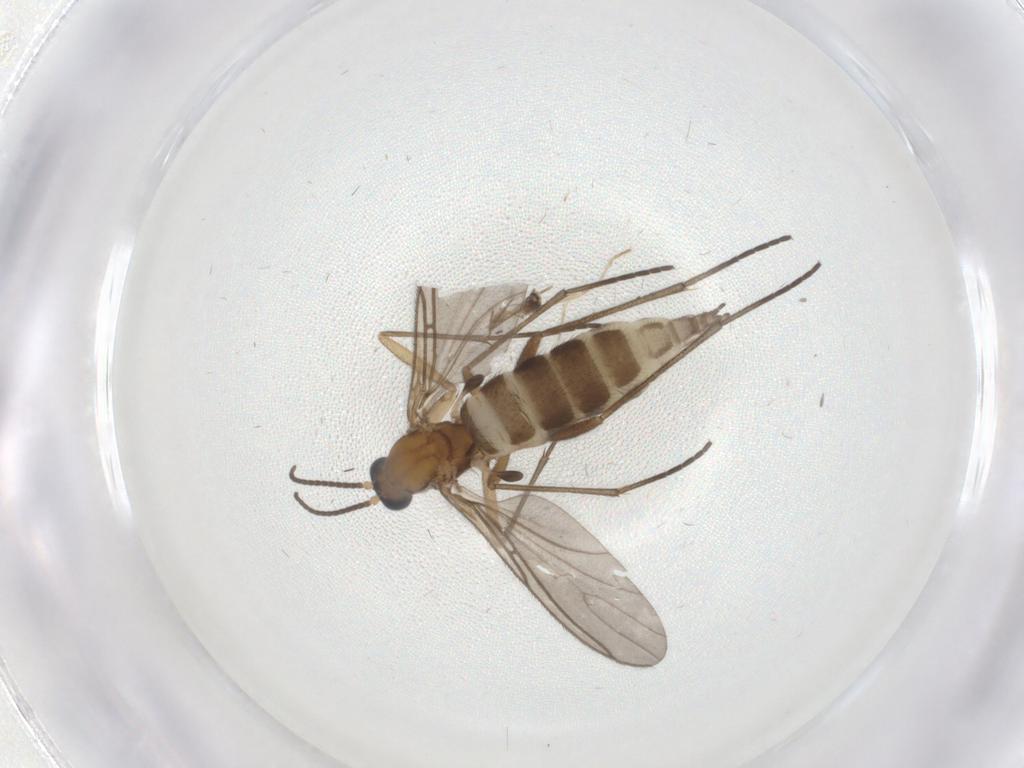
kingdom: Animalia
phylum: Arthropoda
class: Insecta
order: Diptera
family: Sciaridae
